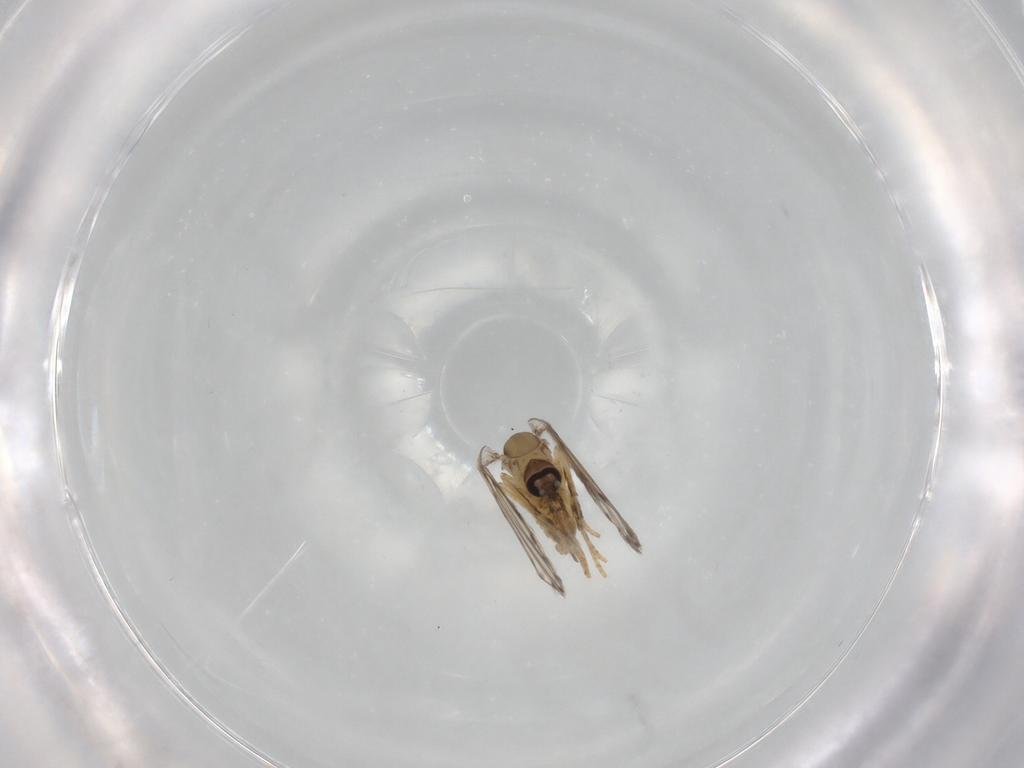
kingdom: Animalia
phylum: Arthropoda
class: Insecta
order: Diptera
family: Psychodidae
